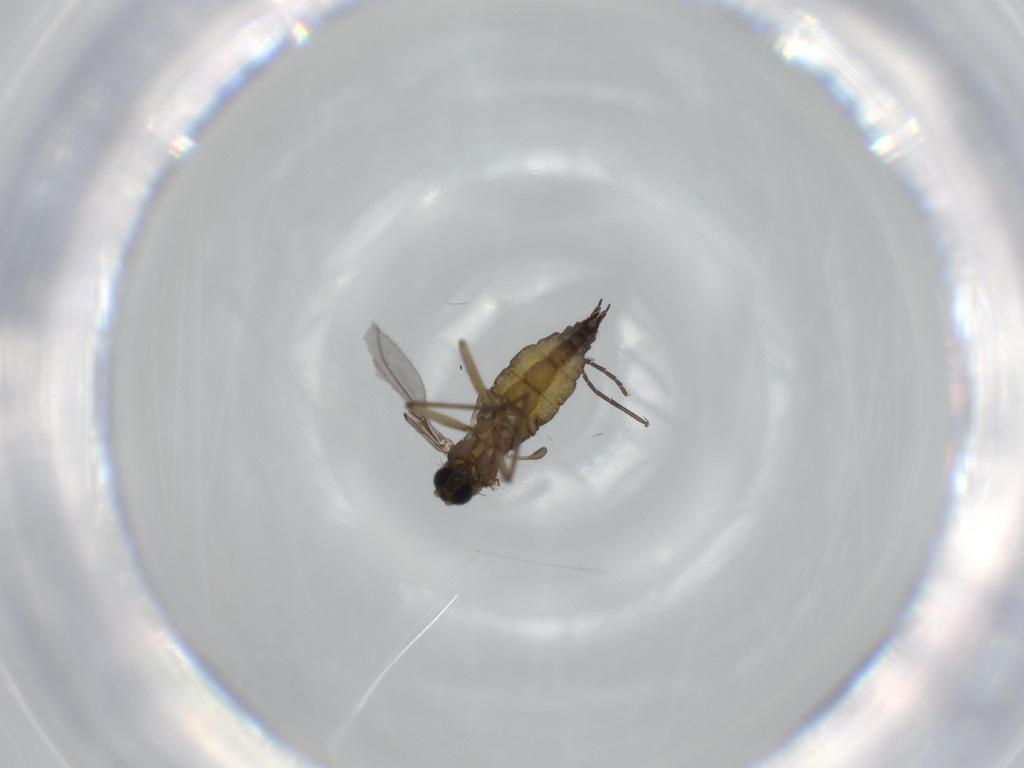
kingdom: Animalia
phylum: Arthropoda
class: Insecta
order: Diptera
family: Sciaridae
